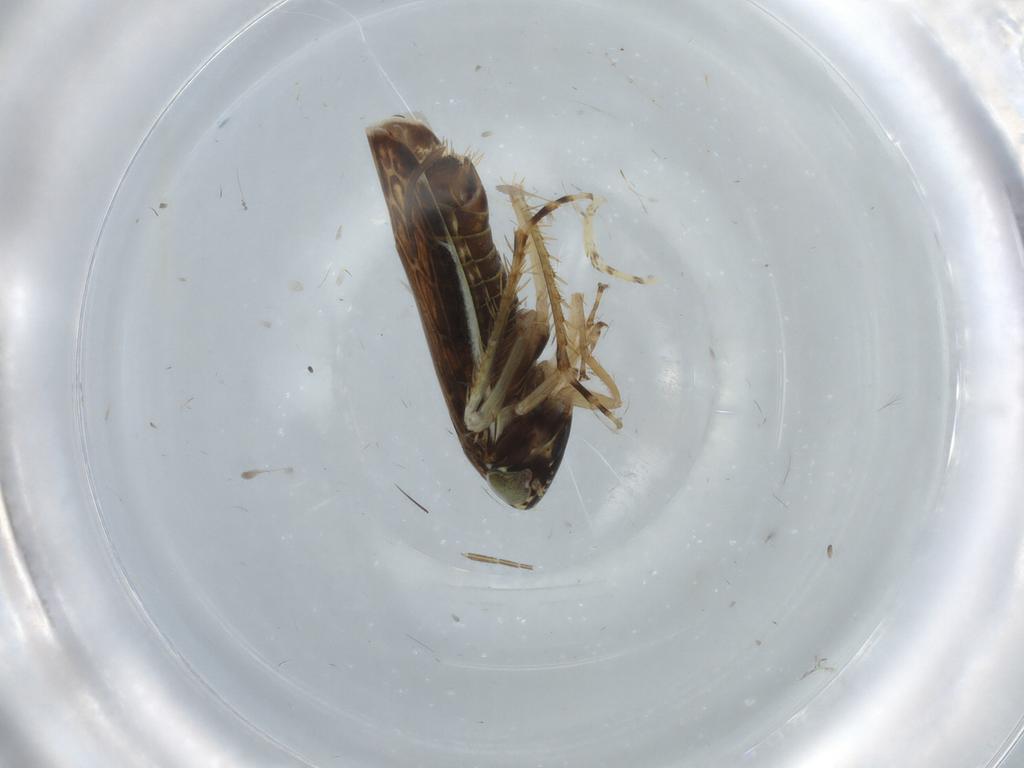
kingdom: Animalia
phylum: Arthropoda
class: Insecta
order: Hemiptera
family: Cicadellidae
